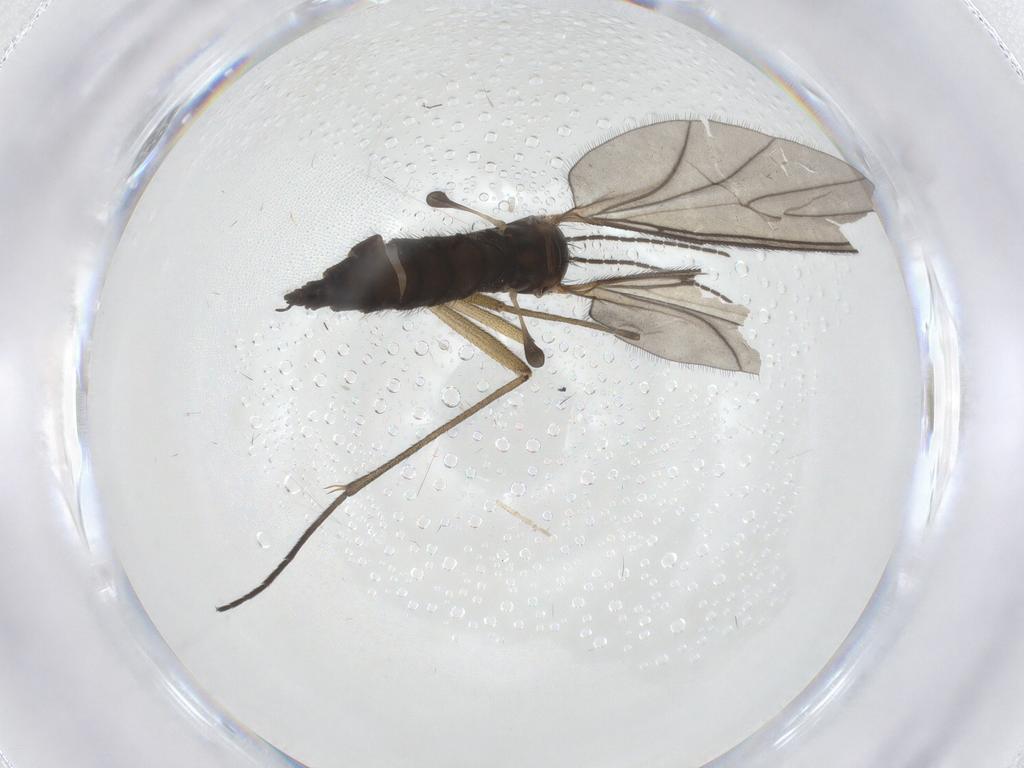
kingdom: Animalia
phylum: Arthropoda
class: Insecta
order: Diptera
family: Sciaridae
